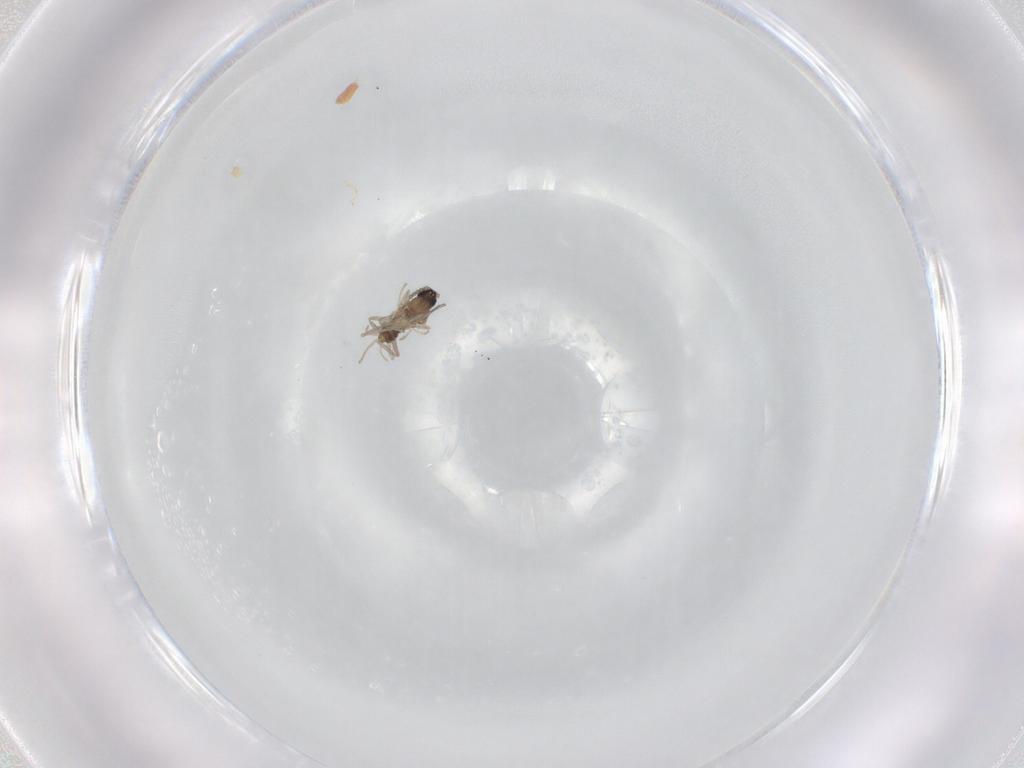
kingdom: Animalia
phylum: Arthropoda
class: Insecta
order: Diptera
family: Cecidomyiidae
